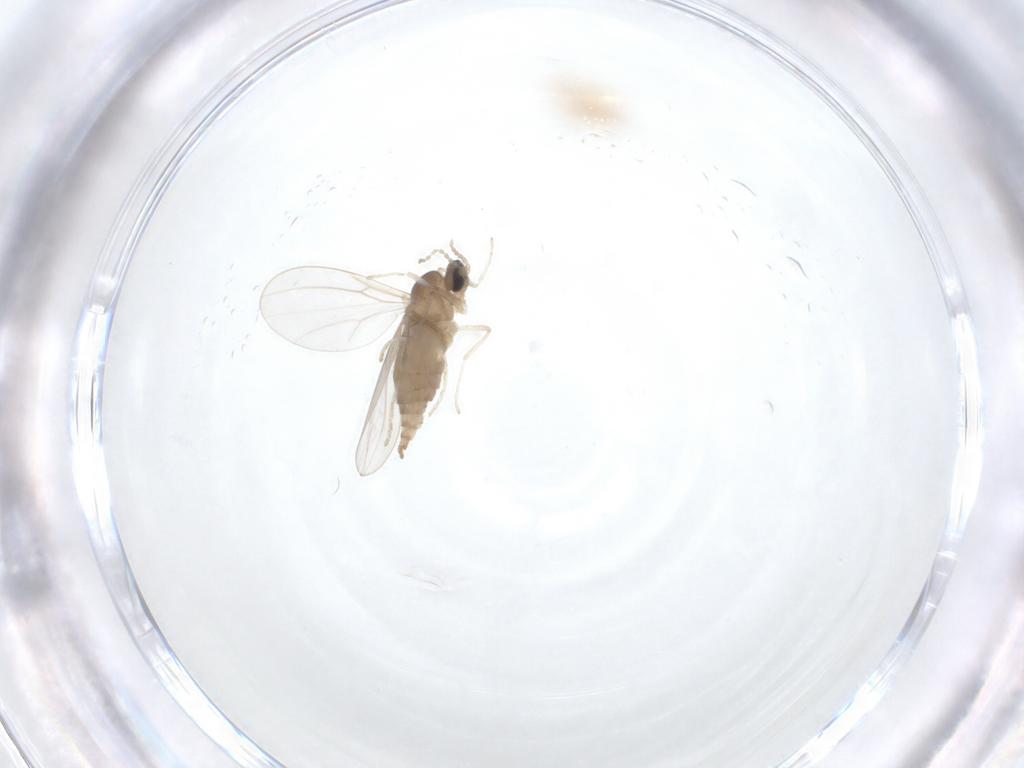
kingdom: Animalia
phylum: Arthropoda
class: Insecta
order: Diptera
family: Cecidomyiidae
